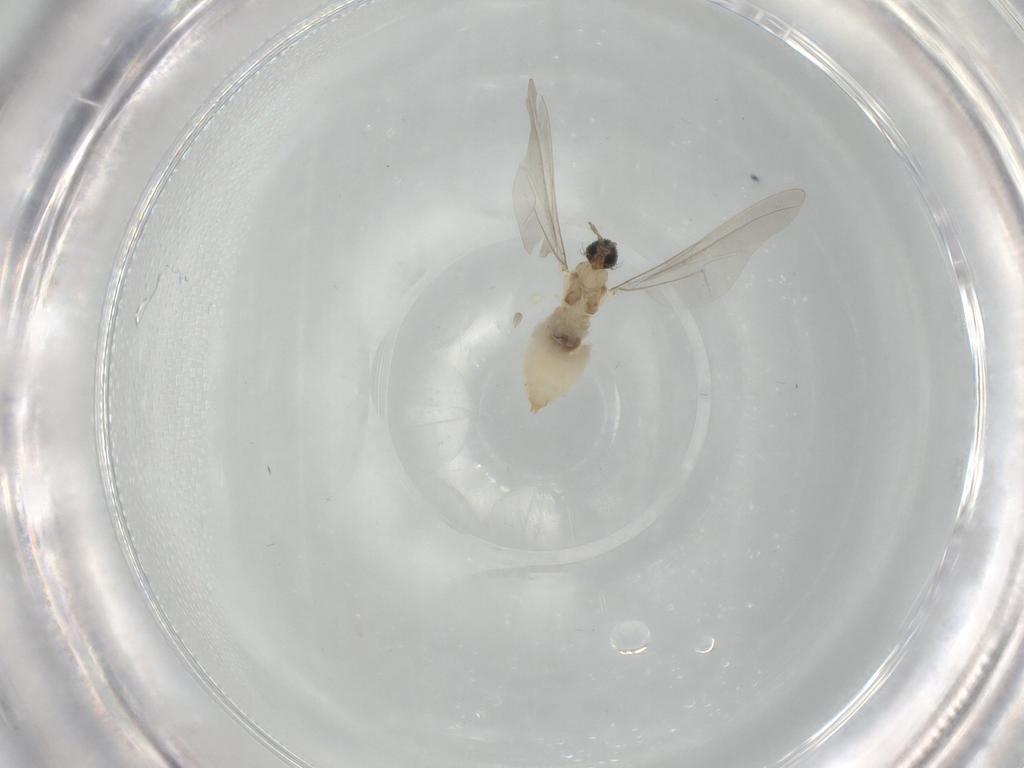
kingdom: Animalia
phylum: Arthropoda
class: Insecta
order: Diptera
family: Cecidomyiidae
